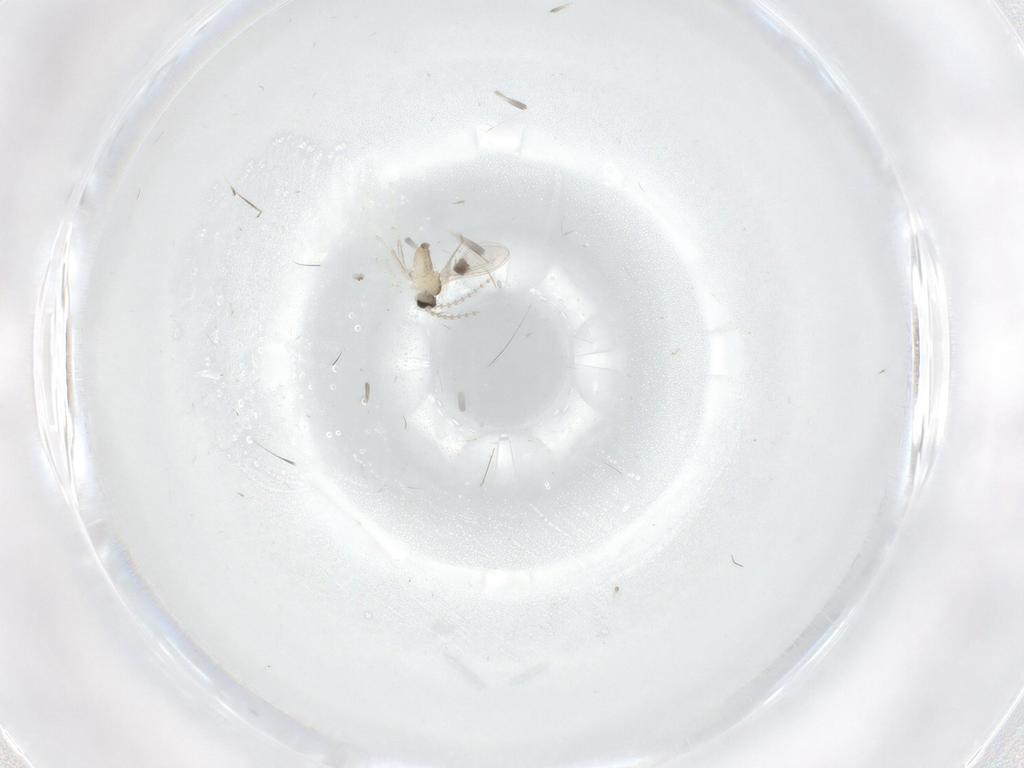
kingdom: Animalia
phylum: Arthropoda
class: Insecta
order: Diptera
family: Cecidomyiidae
